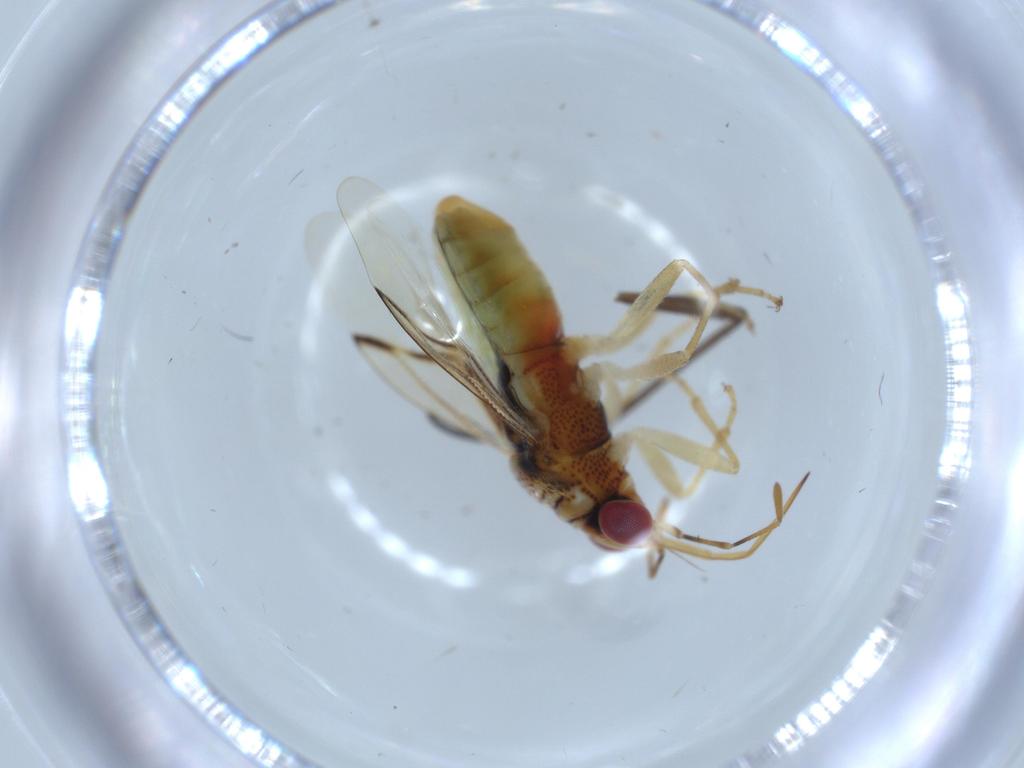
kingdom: Animalia
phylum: Arthropoda
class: Insecta
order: Hemiptera
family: Geocoridae
